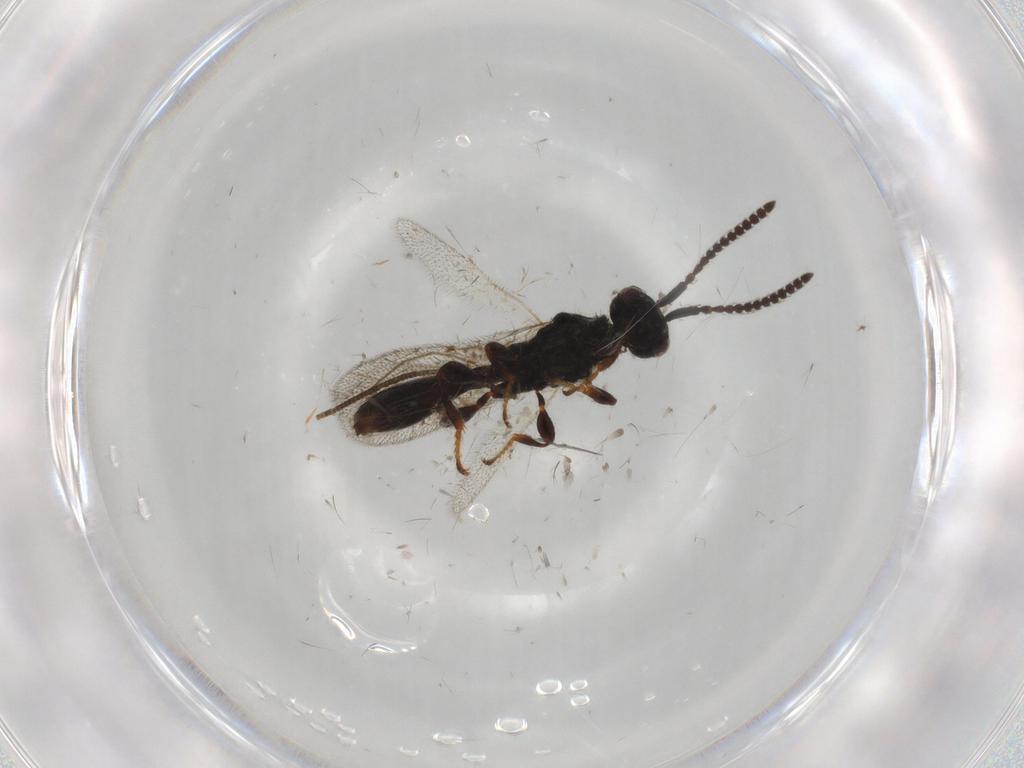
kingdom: Animalia
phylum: Arthropoda
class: Insecta
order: Hymenoptera
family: Diapriidae
